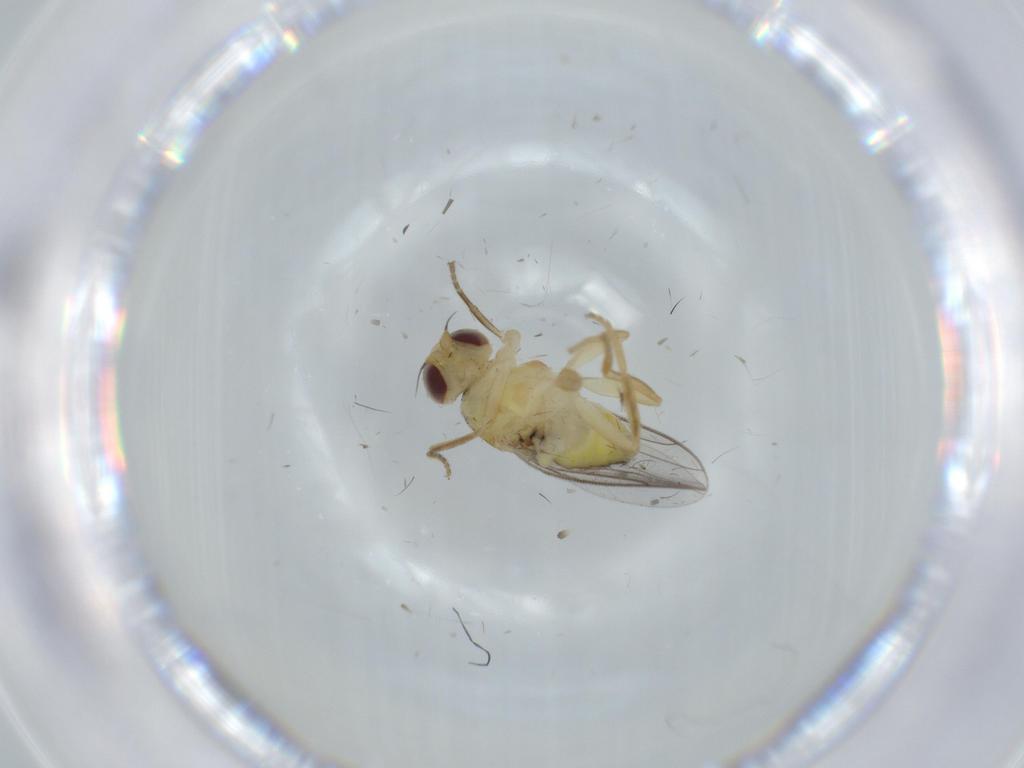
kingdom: Animalia
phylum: Arthropoda
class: Insecta
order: Diptera
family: Chloropidae
